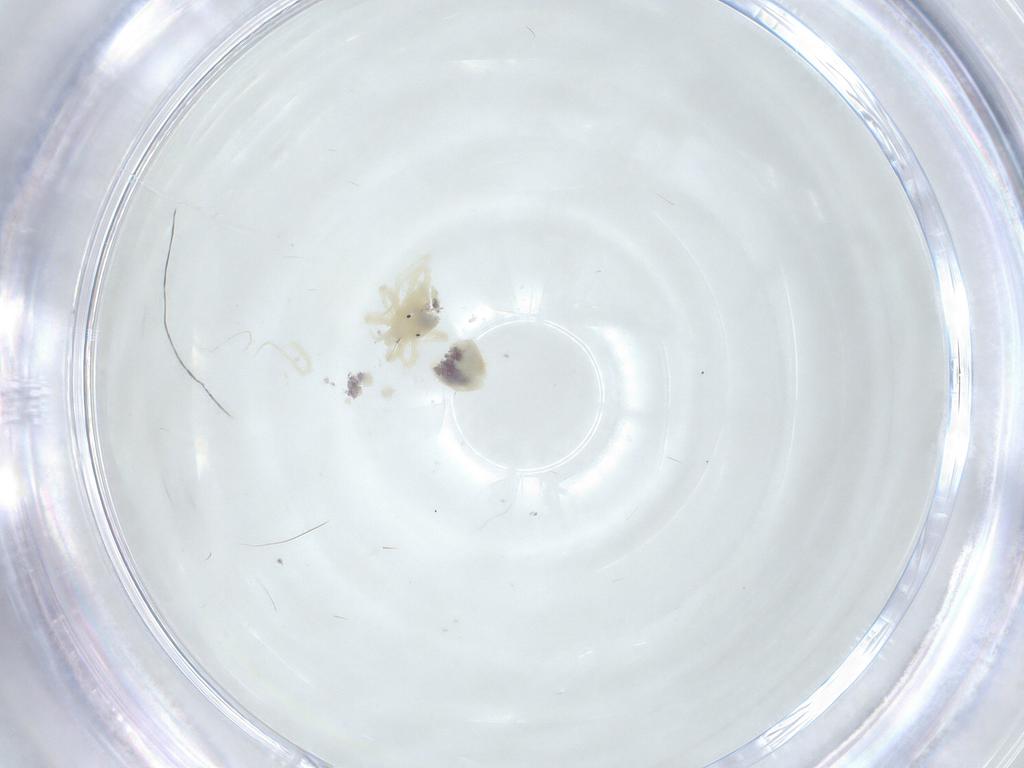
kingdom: Animalia
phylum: Arthropoda
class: Arachnida
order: Trombidiformes
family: Anystidae
